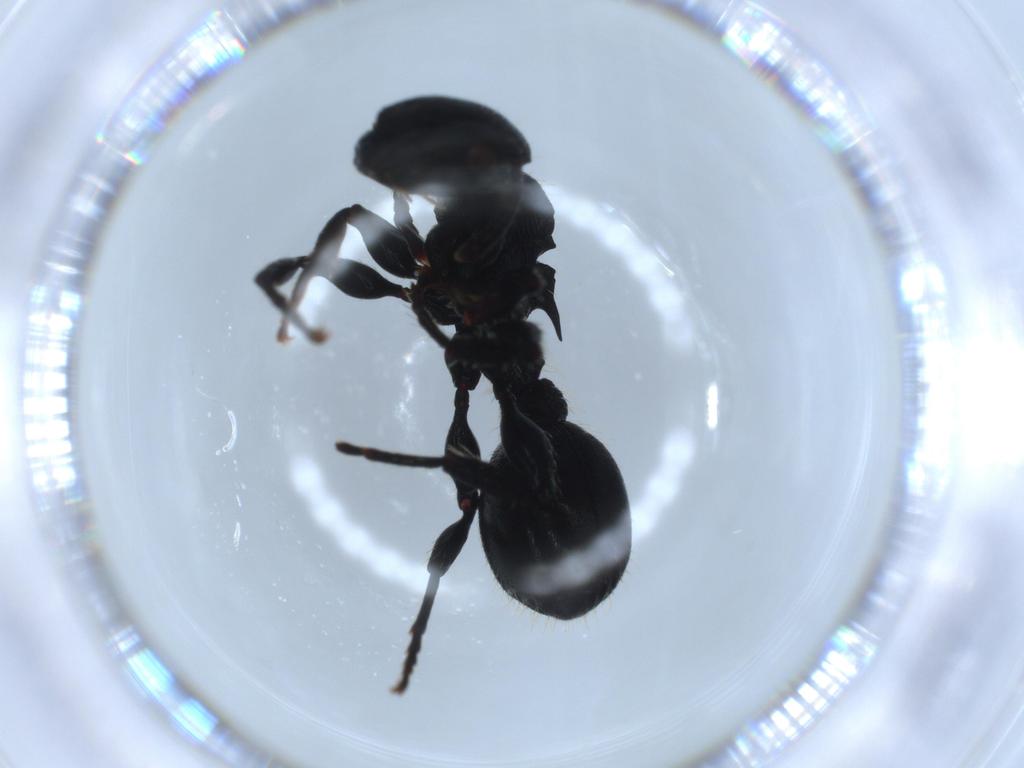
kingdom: Animalia
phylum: Arthropoda
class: Insecta
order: Hymenoptera
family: Formicidae
